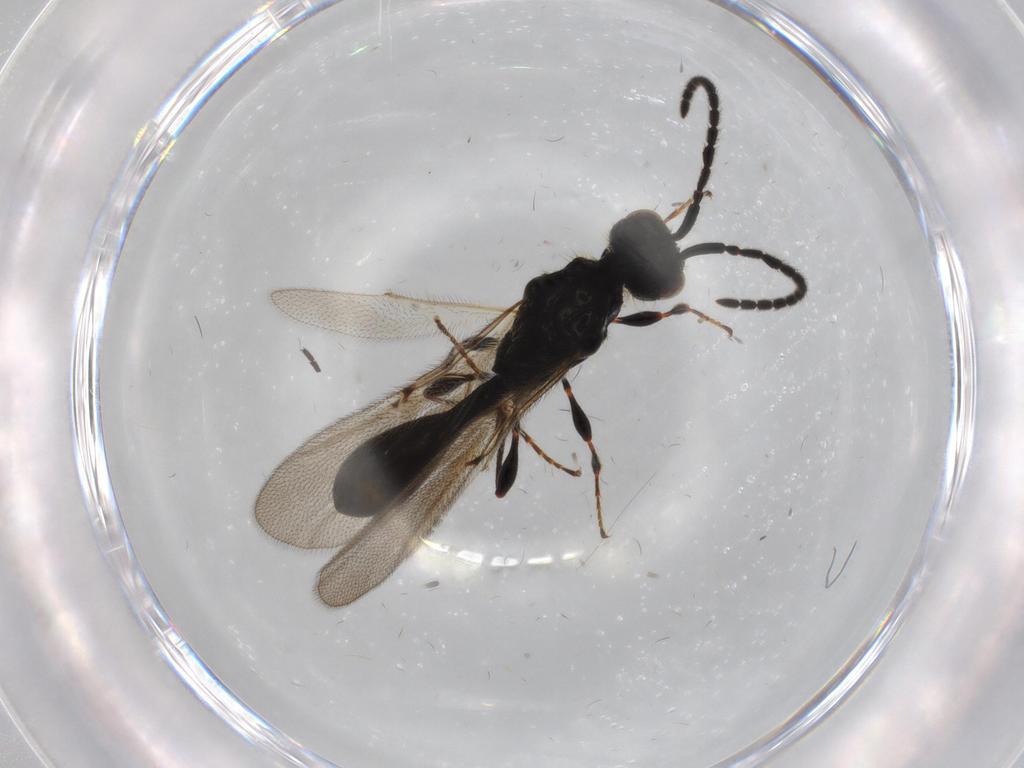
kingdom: Animalia
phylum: Arthropoda
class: Insecta
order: Hymenoptera
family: Diapriidae
